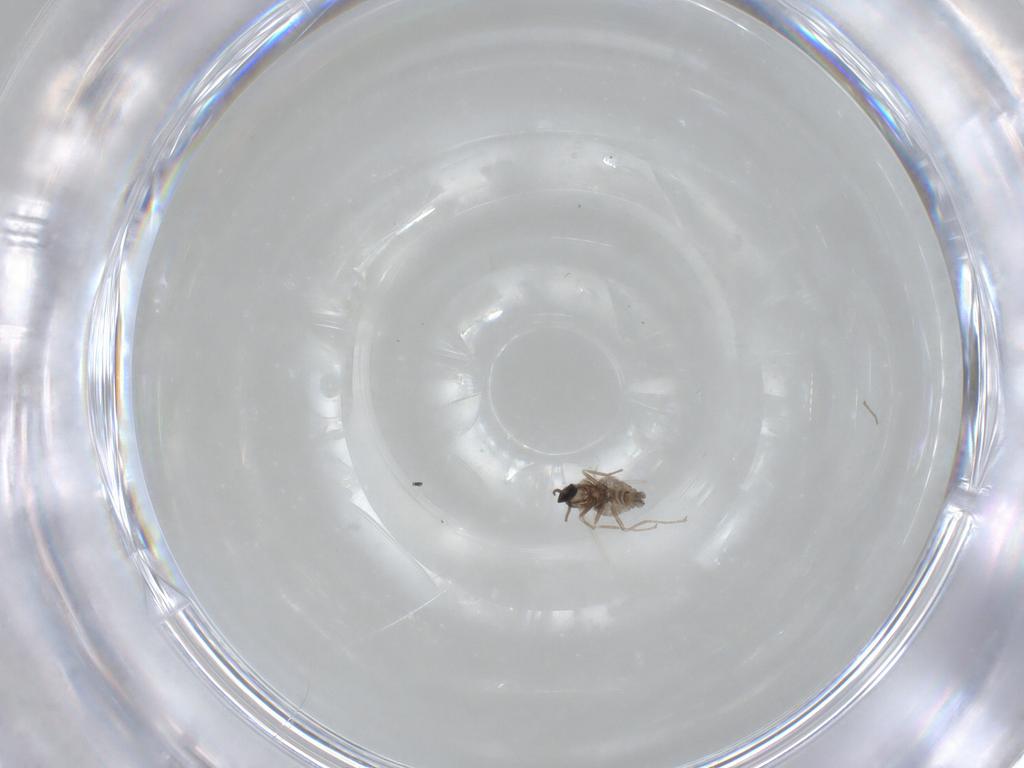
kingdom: Animalia
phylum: Arthropoda
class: Insecta
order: Diptera
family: Cecidomyiidae
